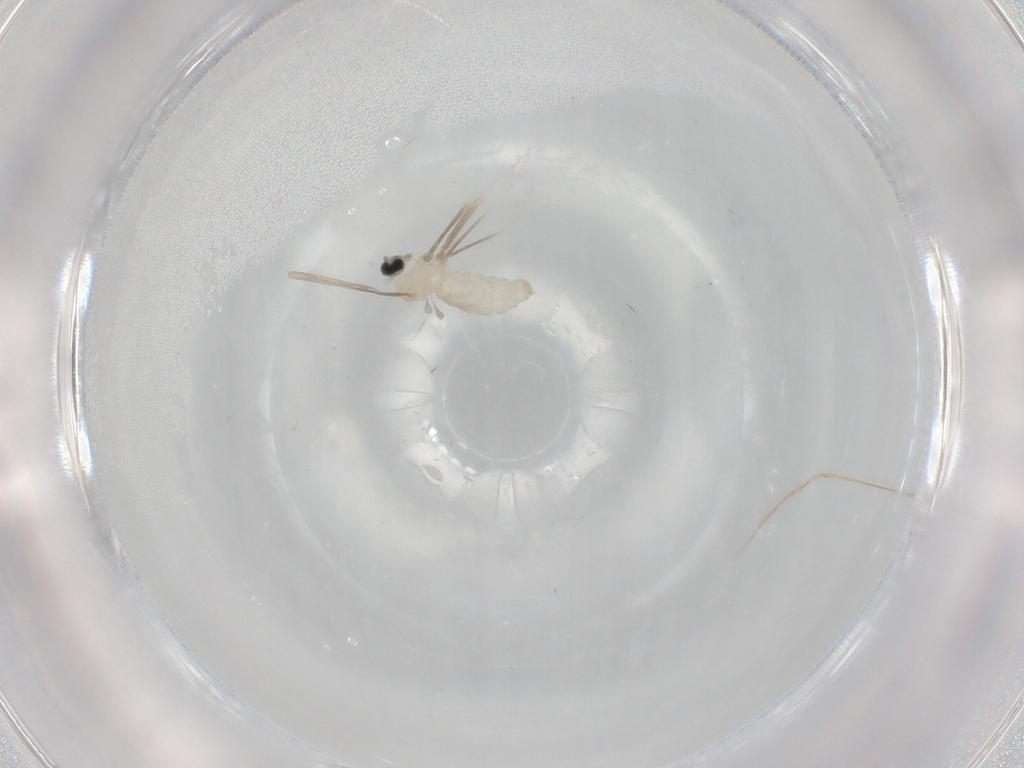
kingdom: Animalia
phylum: Arthropoda
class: Insecta
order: Diptera
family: Cecidomyiidae
